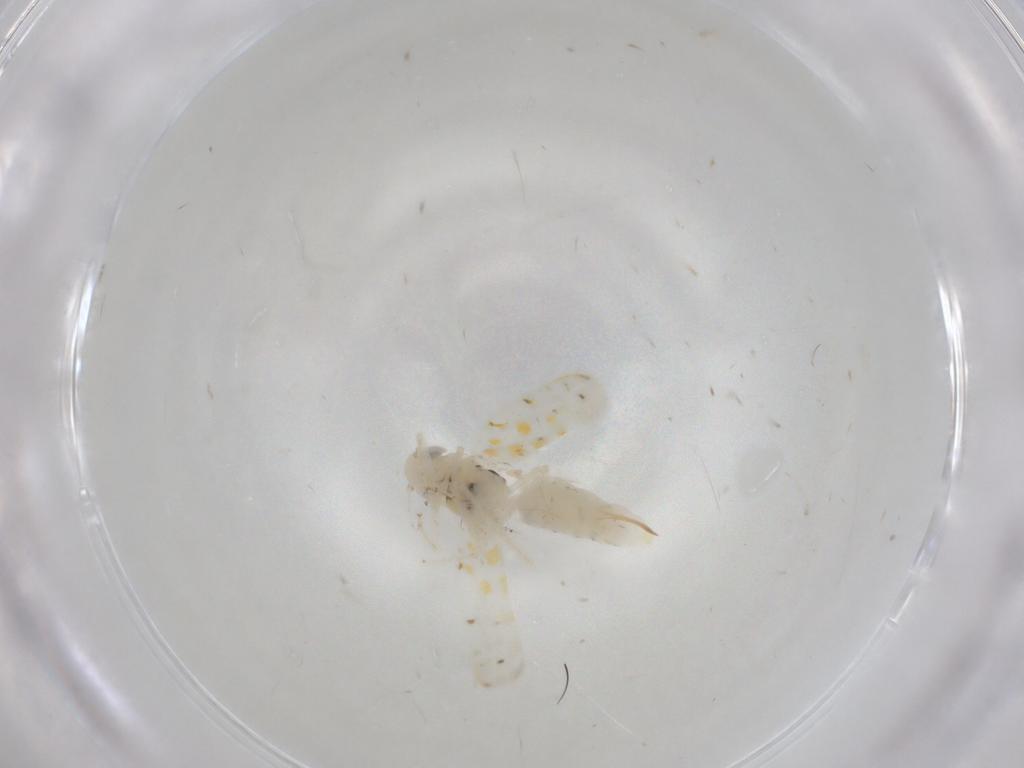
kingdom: Animalia
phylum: Arthropoda
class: Insecta
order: Hemiptera
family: Cicadellidae
